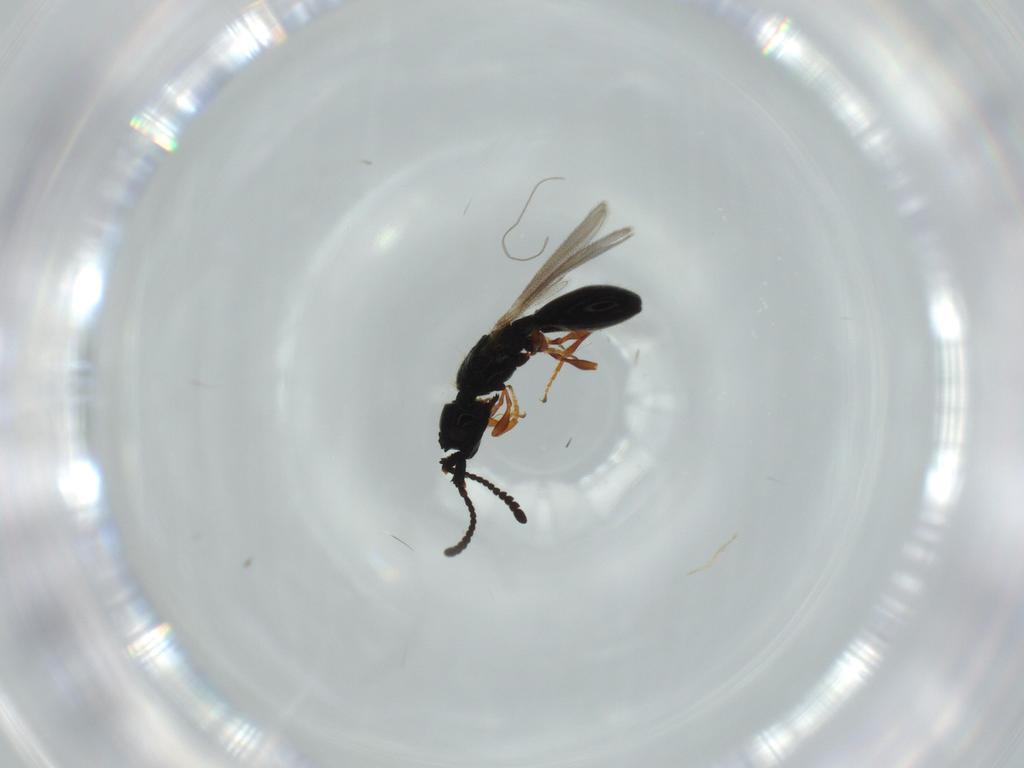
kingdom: Animalia
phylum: Arthropoda
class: Insecta
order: Hymenoptera
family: Diapriidae
